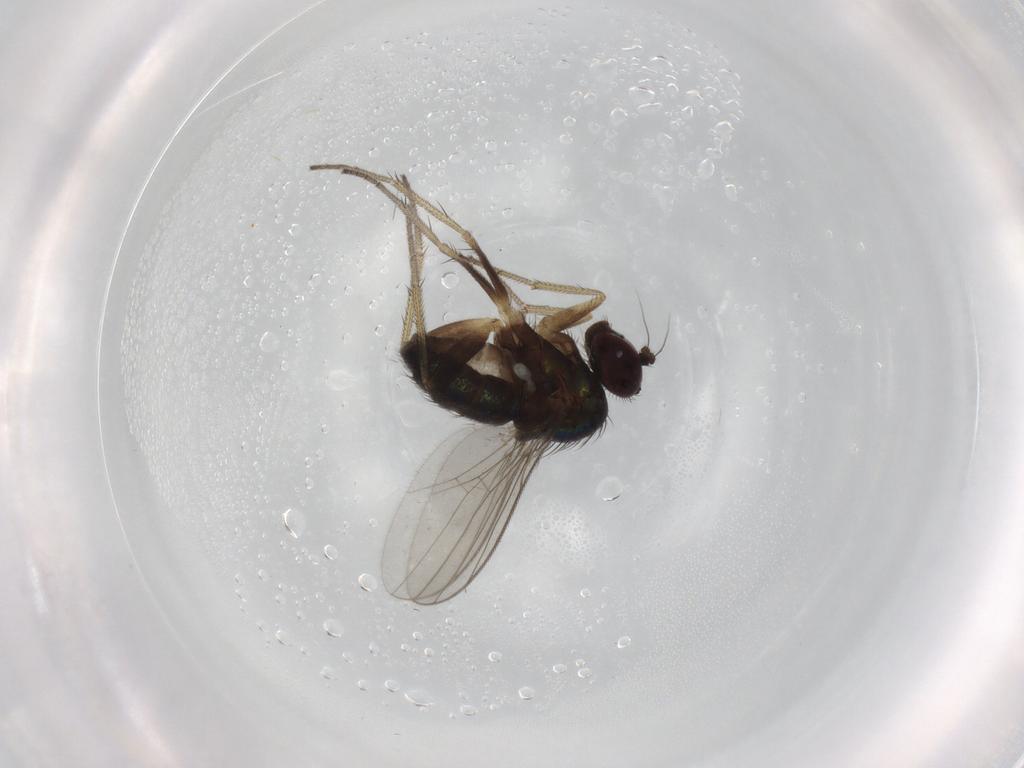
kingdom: Animalia
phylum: Arthropoda
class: Insecta
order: Diptera
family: Dolichopodidae
